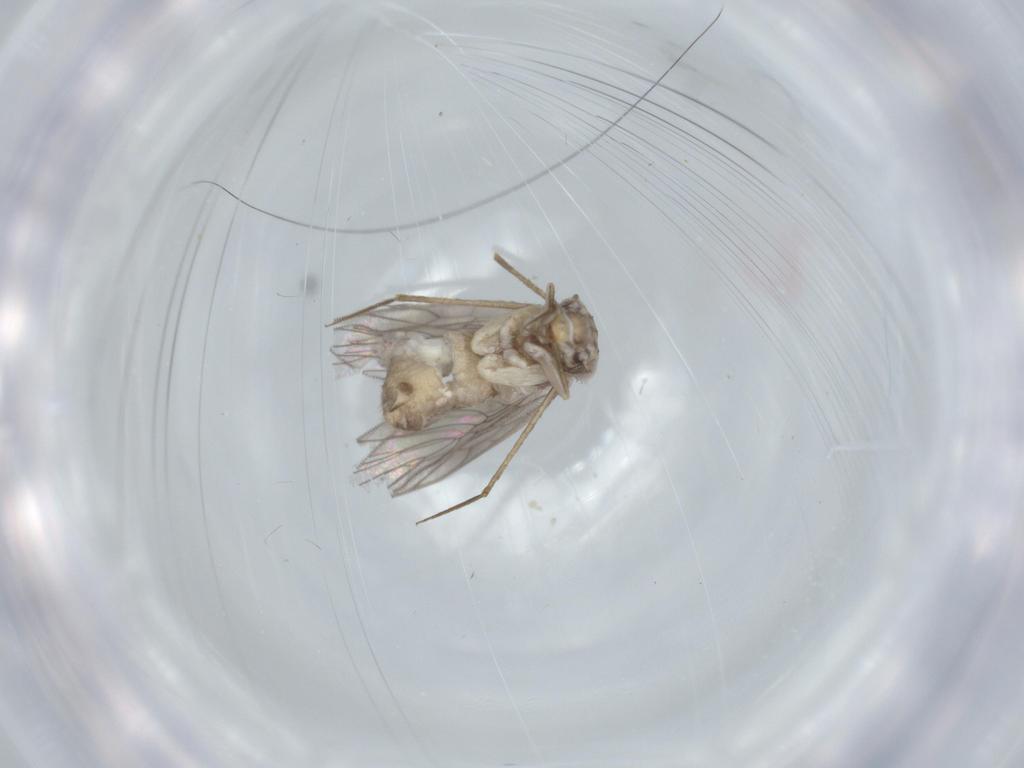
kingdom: Animalia
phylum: Arthropoda
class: Insecta
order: Psocodea
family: Lepidopsocidae
